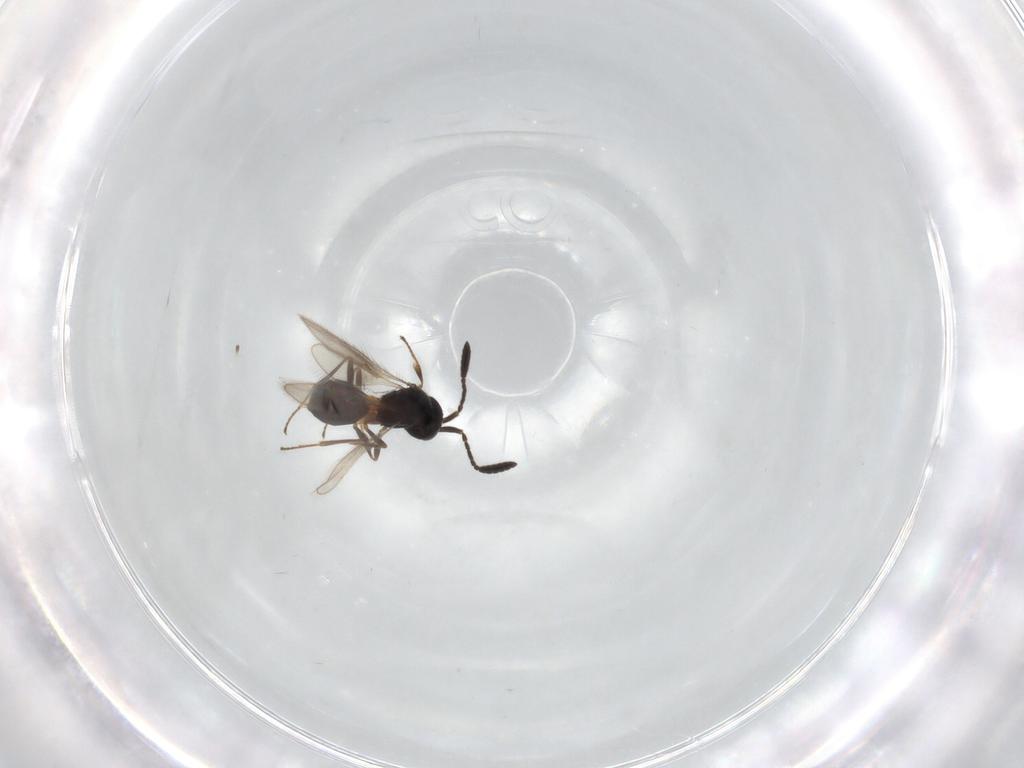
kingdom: Animalia
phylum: Arthropoda
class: Insecta
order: Hymenoptera
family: Scelionidae
